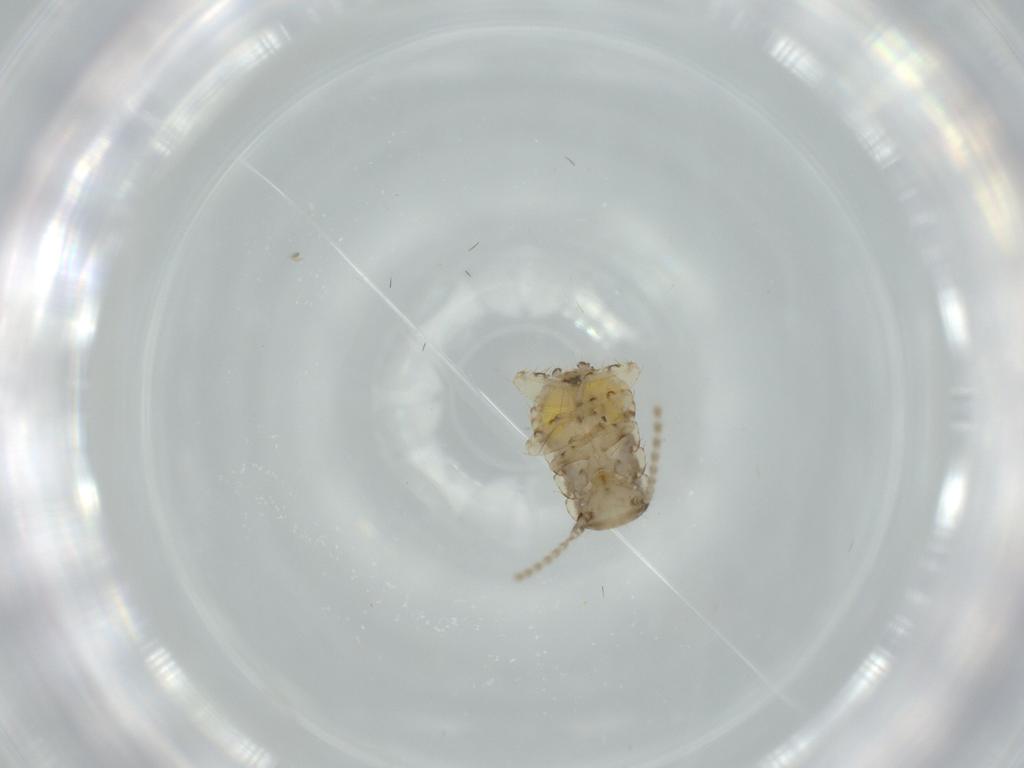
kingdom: Animalia
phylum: Arthropoda
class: Insecta
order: Blattodea
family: Ectobiidae
